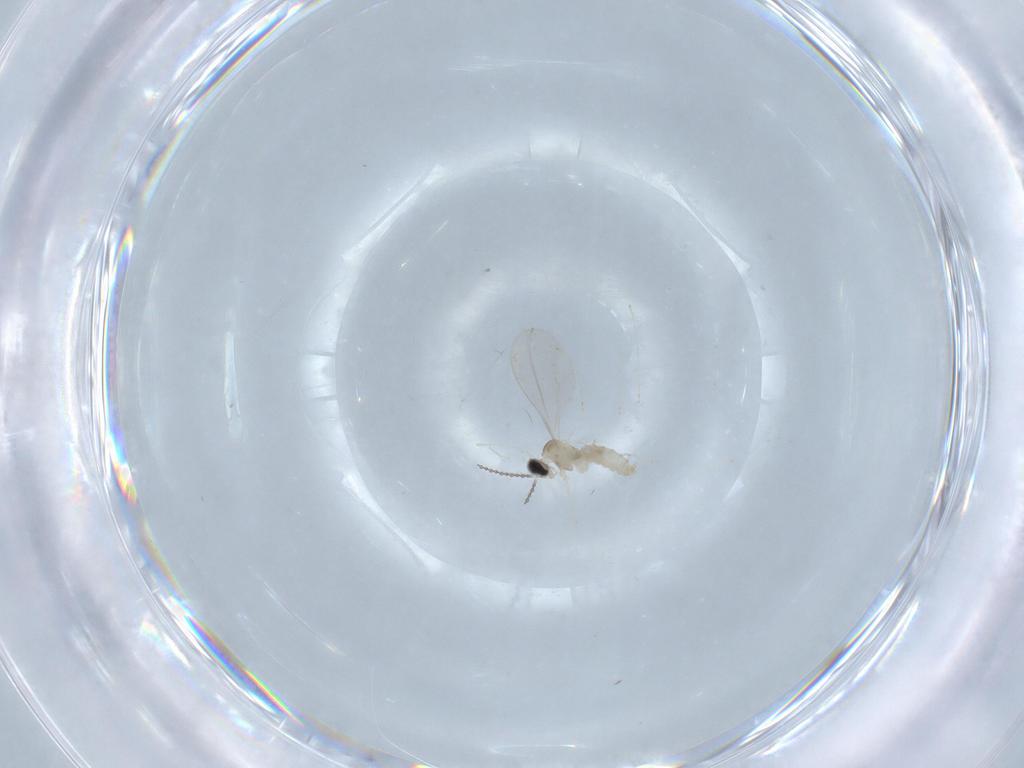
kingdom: Animalia
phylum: Arthropoda
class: Insecta
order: Diptera
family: Cecidomyiidae
